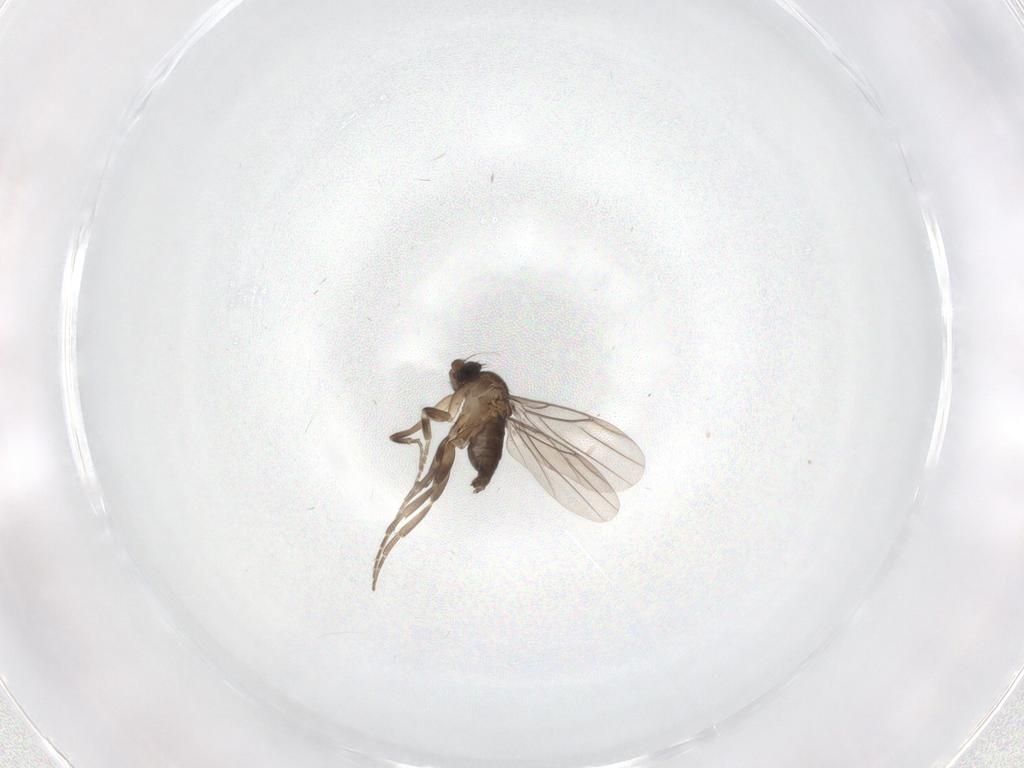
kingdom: Animalia
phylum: Arthropoda
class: Insecta
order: Diptera
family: Phoridae
